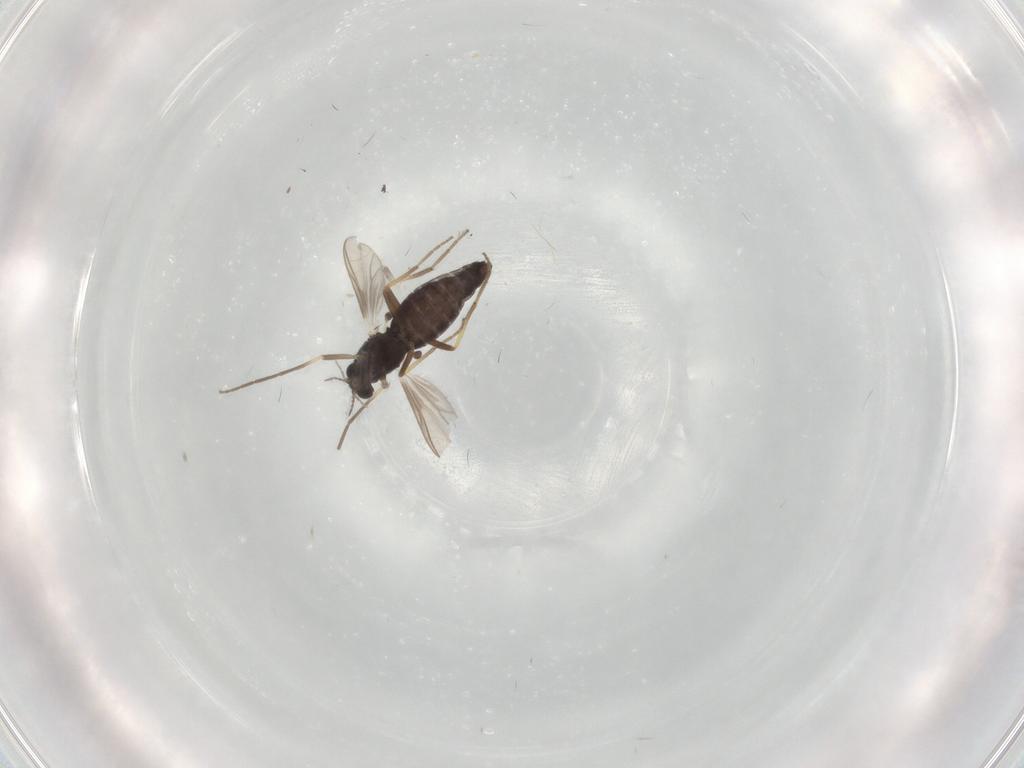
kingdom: Animalia
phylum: Arthropoda
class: Insecta
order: Diptera
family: Chironomidae
